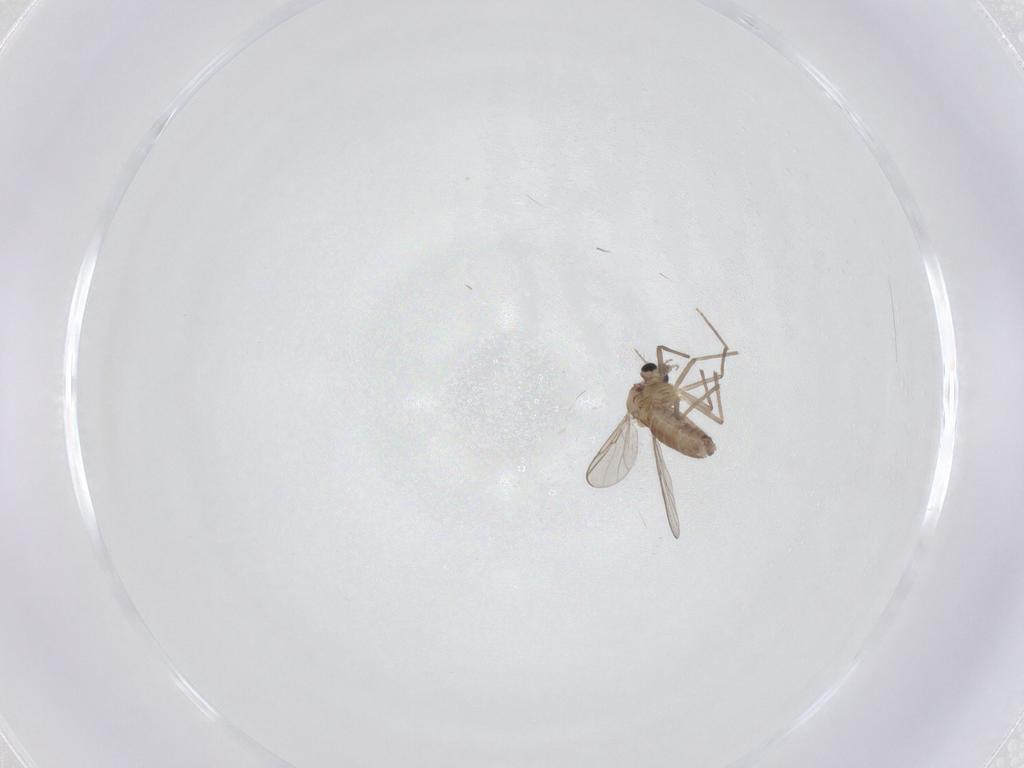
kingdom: Animalia
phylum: Arthropoda
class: Insecta
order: Diptera
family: Chironomidae
